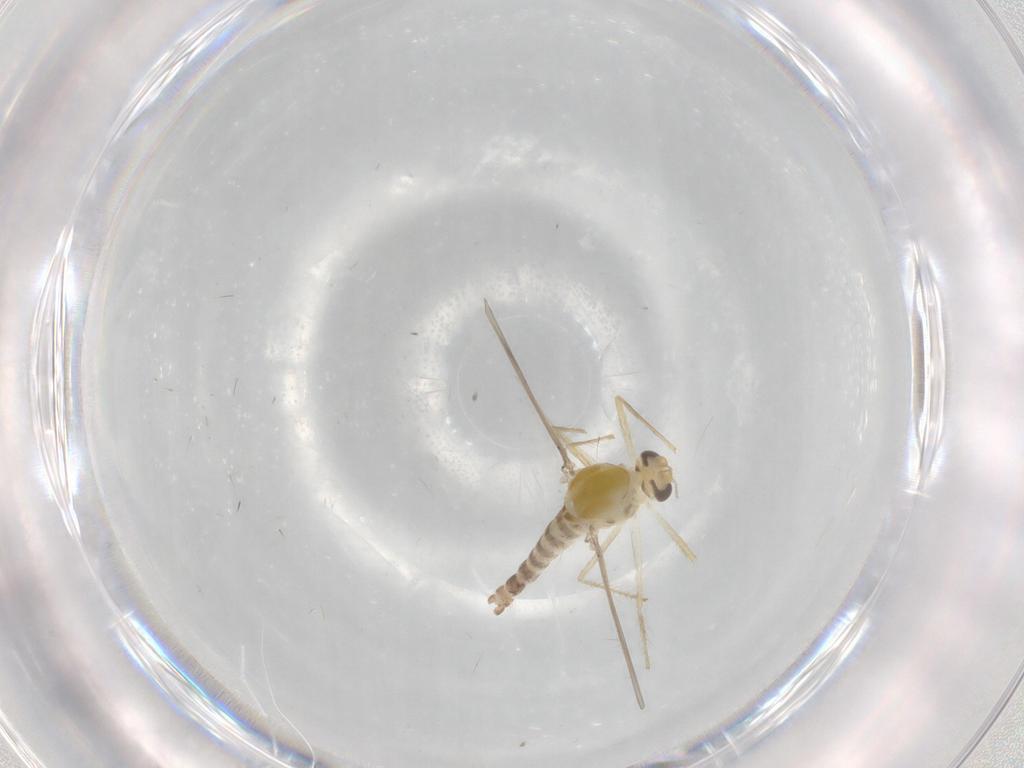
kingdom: Animalia
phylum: Arthropoda
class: Insecta
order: Diptera
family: Chironomidae
